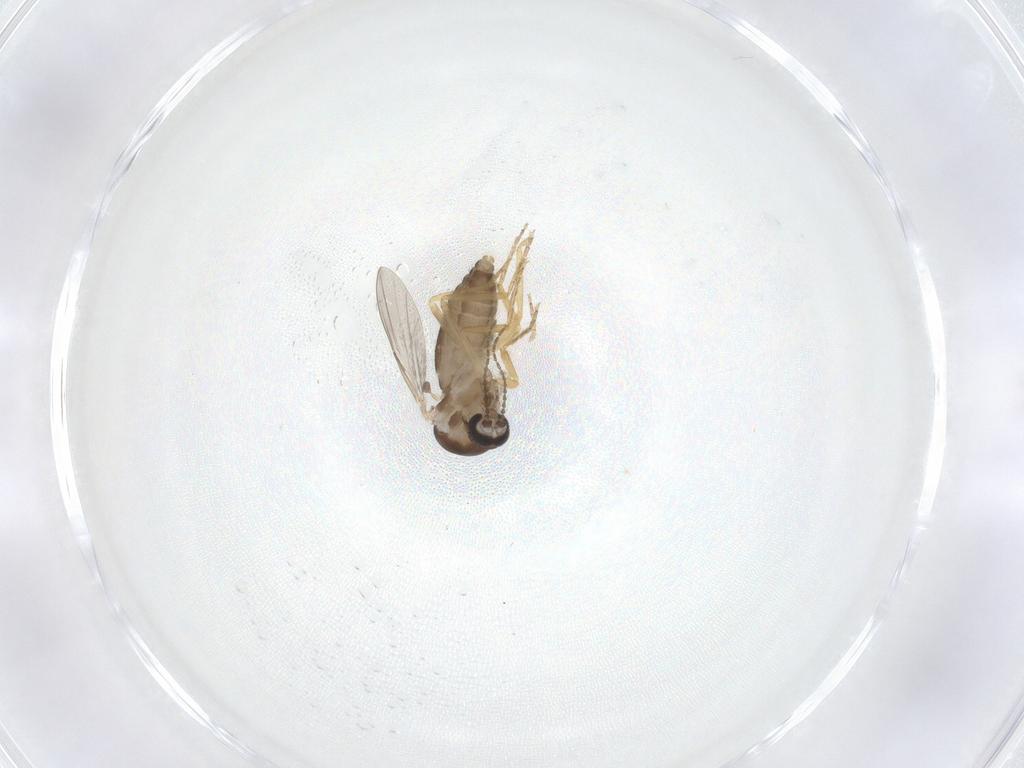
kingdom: Animalia
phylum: Arthropoda
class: Insecta
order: Diptera
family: Ceratopogonidae
